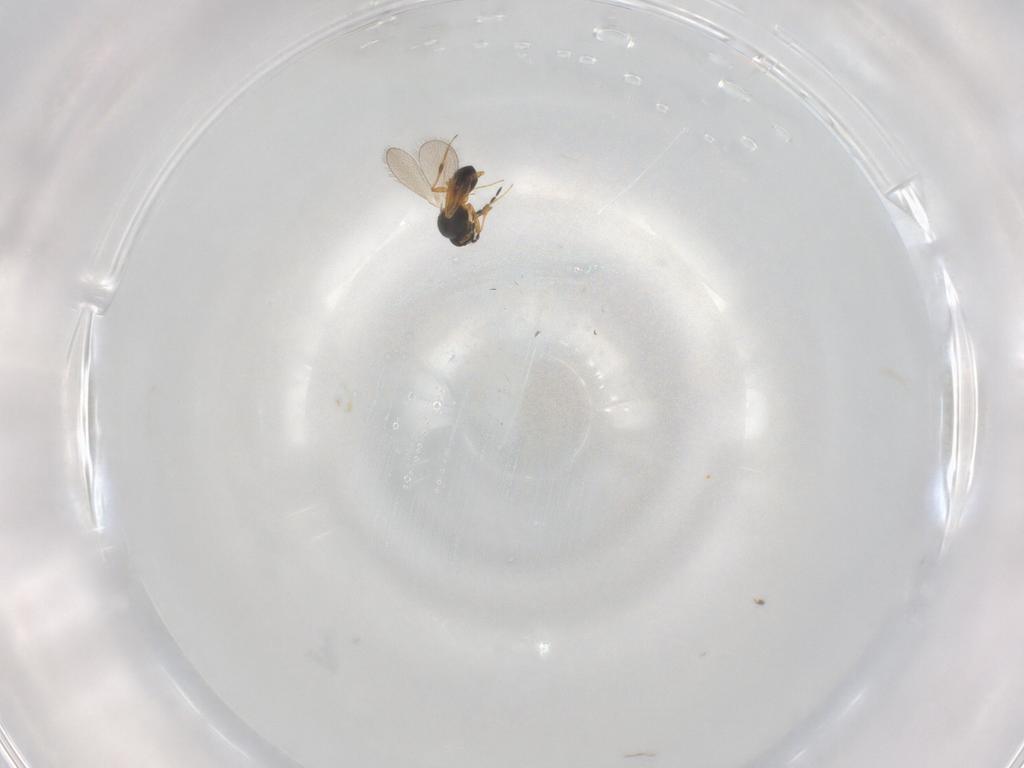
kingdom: Animalia
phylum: Arthropoda
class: Insecta
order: Hymenoptera
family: Platygastridae
